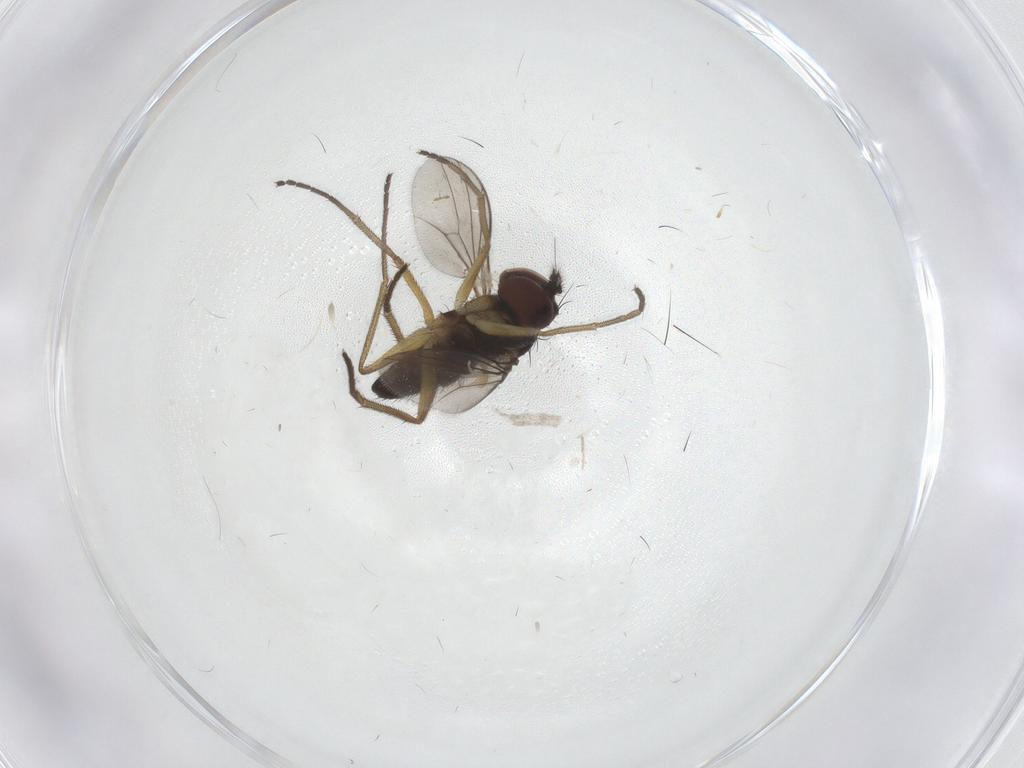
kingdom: Animalia
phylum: Arthropoda
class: Insecta
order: Diptera
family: Dolichopodidae
